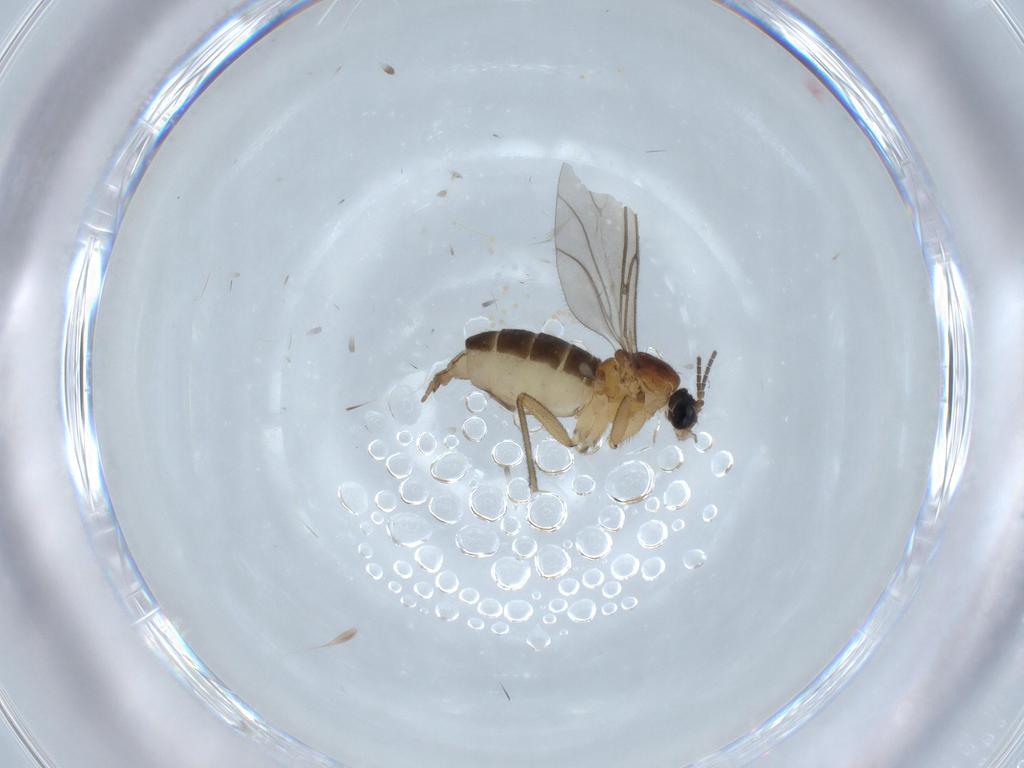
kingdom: Animalia
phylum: Arthropoda
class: Insecta
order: Diptera
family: Sciaridae
